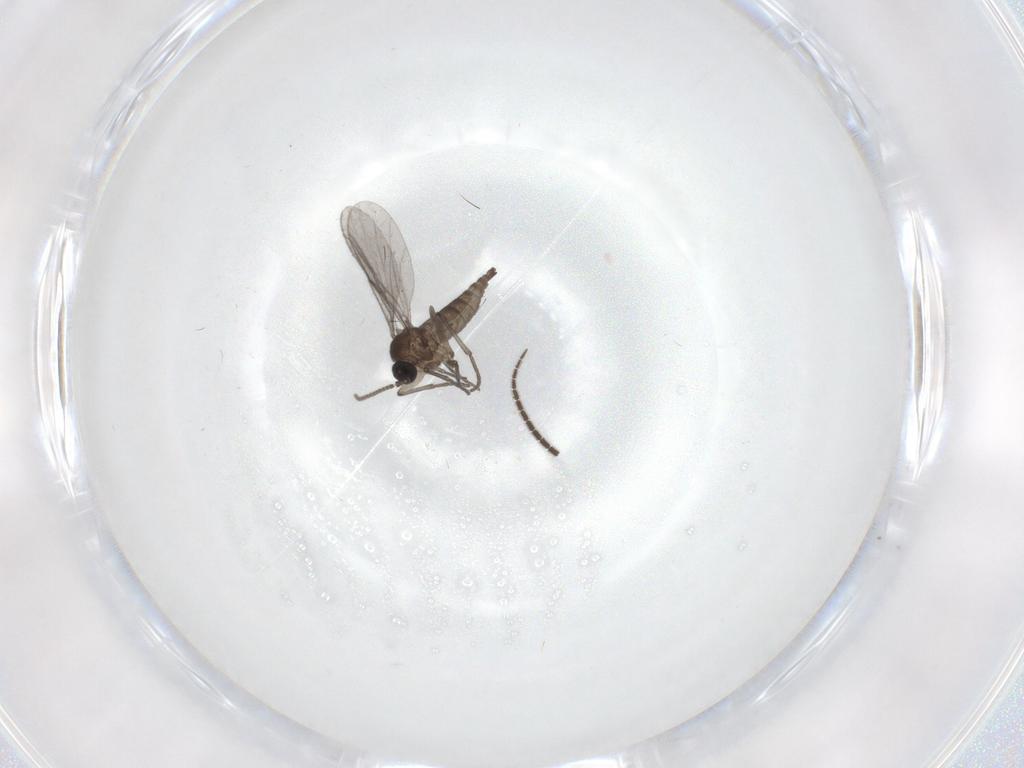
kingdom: Animalia
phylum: Arthropoda
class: Insecta
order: Diptera
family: Sciaridae
